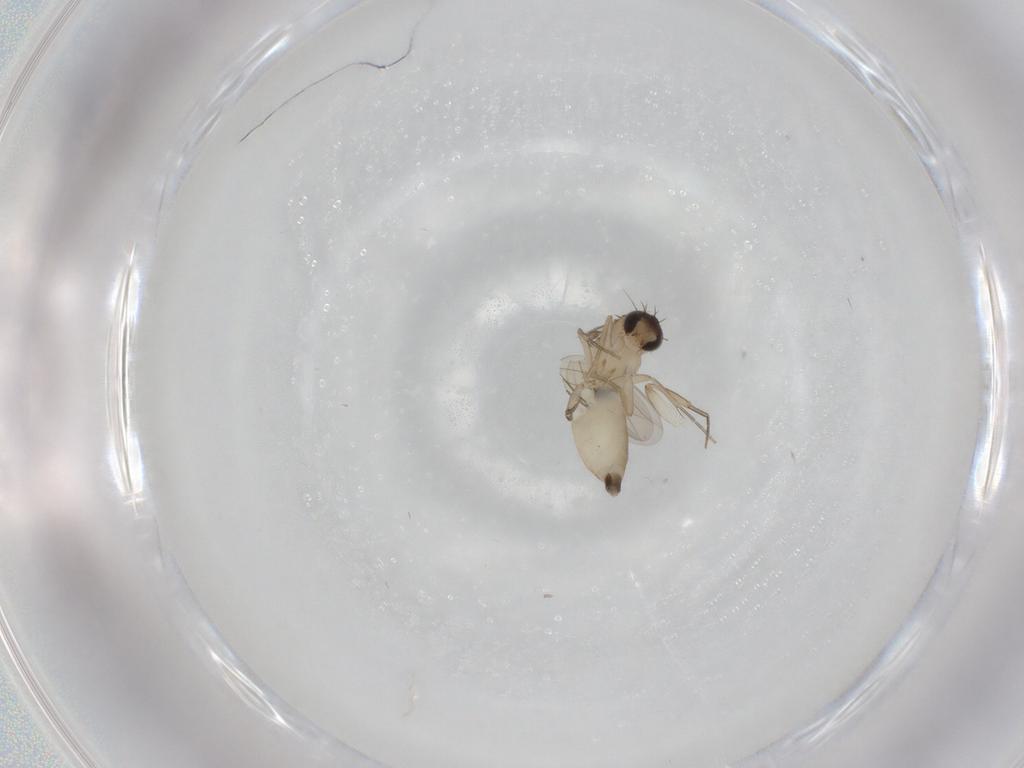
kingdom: Animalia
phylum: Arthropoda
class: Insecta
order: Diptera
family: Phoridae
